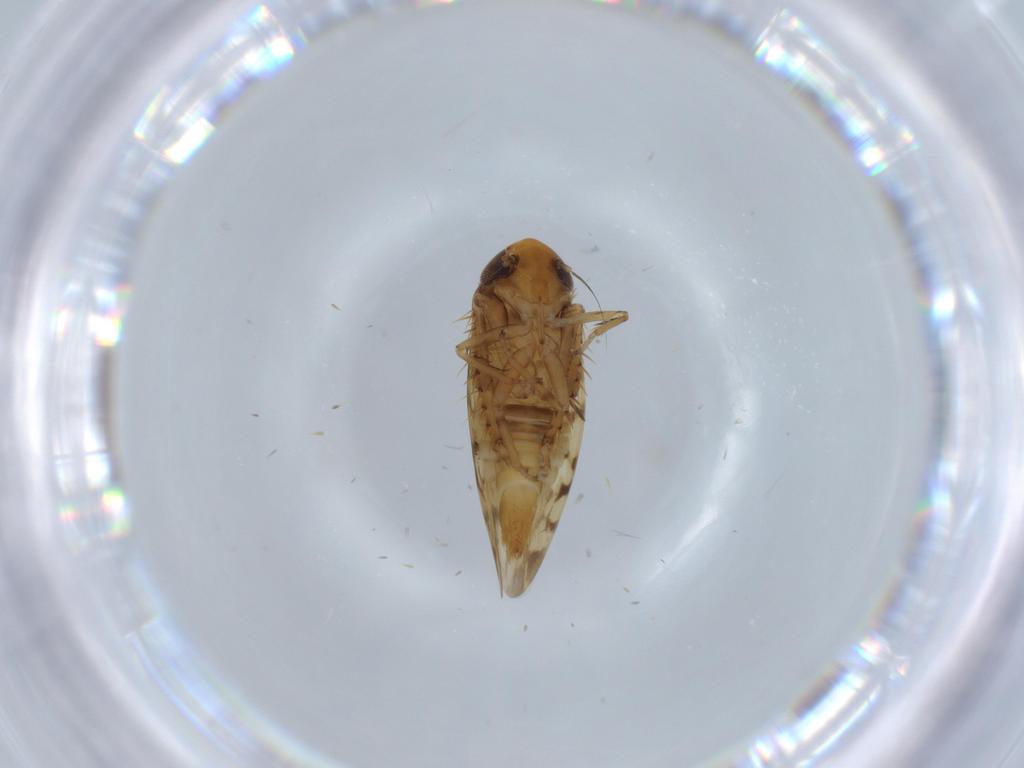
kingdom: Animalia
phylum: Arthropoda
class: Insecta
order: Hemiptera
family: Cicadellidae
